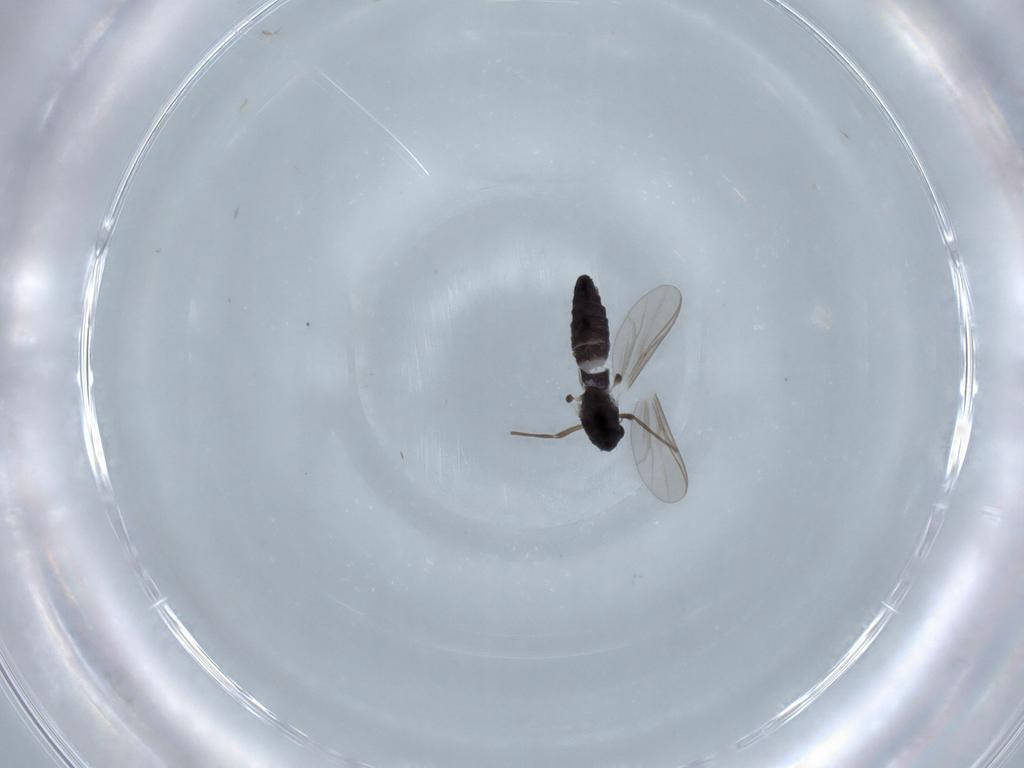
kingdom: Animalia
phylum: Arthropoda
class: Insecta
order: Diptera
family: Chironomidae
